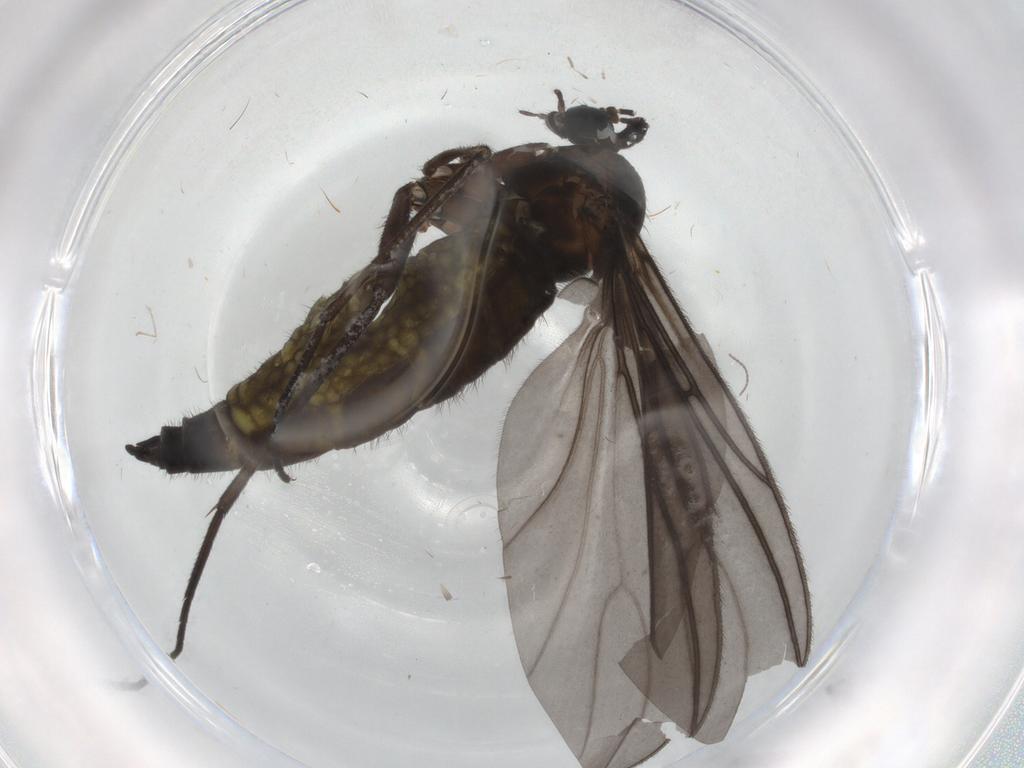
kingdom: Animalia
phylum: Arthropoda
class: Insecta
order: Diptera
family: Sciaridae
